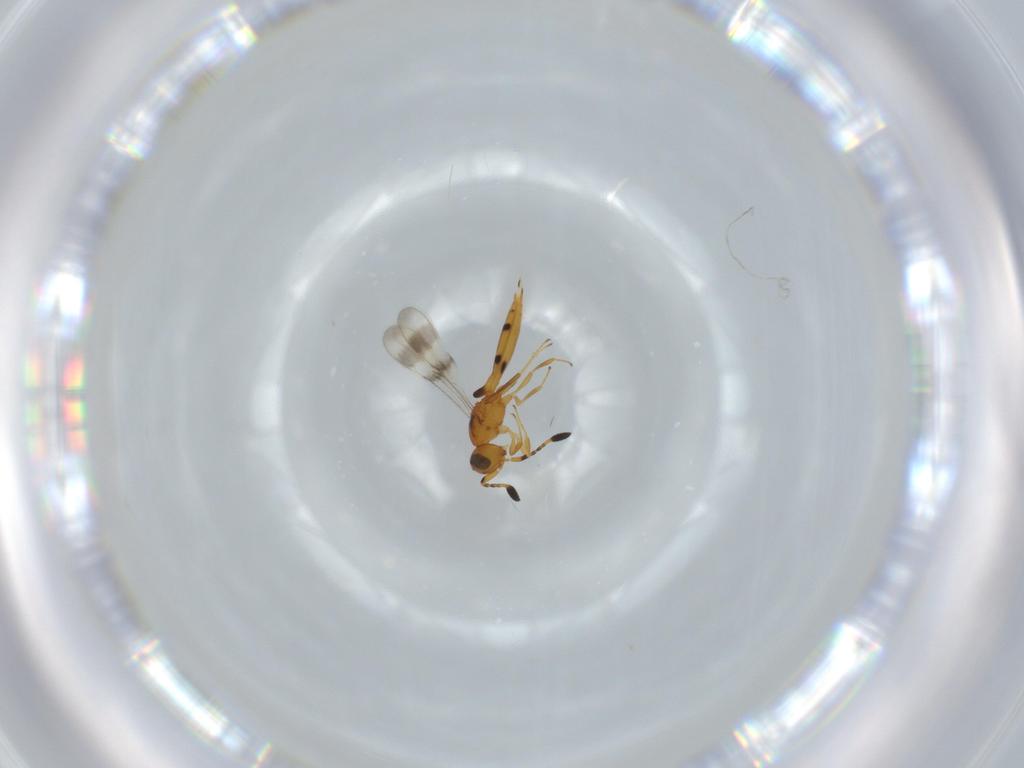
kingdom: Animalia
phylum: Arthropoda
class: Insecta
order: Hymenoptera
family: Scelionidae
